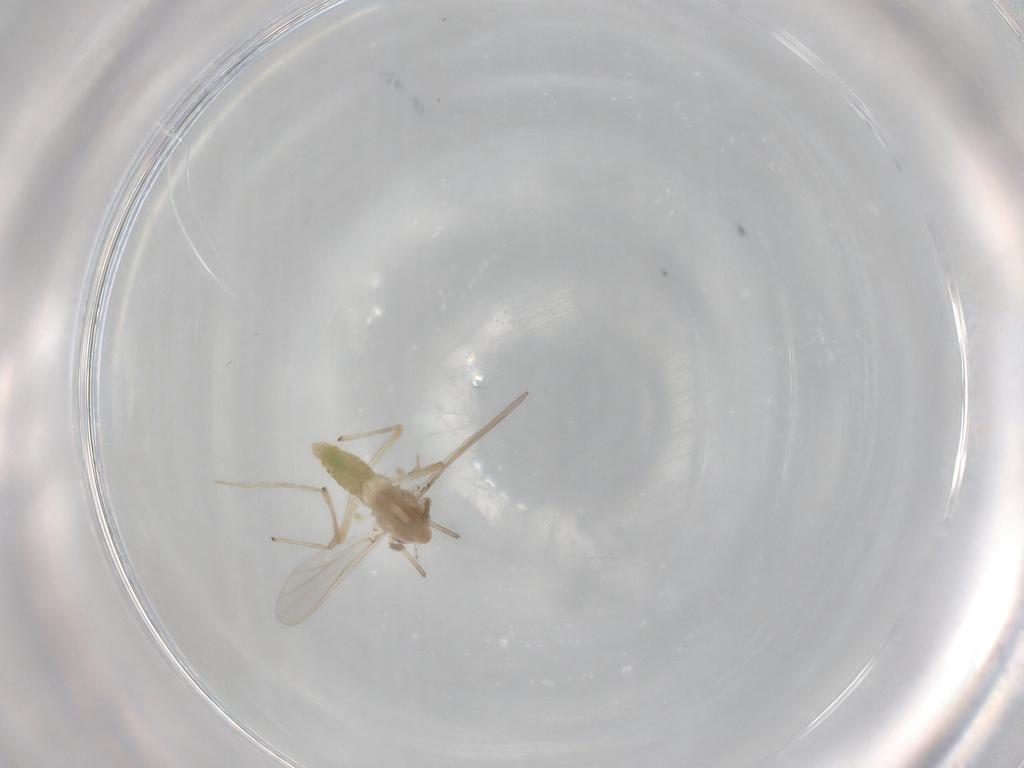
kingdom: Animalia
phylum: Arthropoda
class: Insecta
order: Diptera
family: Chironomidae
